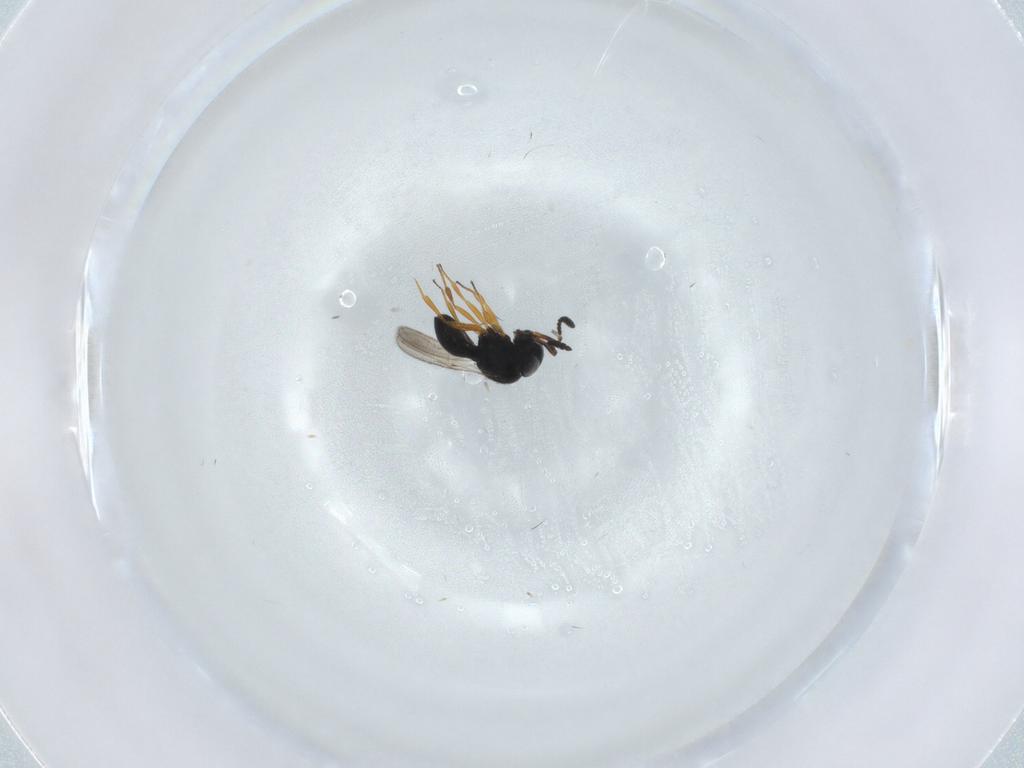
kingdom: Animalia
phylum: Arthropoda
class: Insecta
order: Hymenoptera
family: Scelionidae
